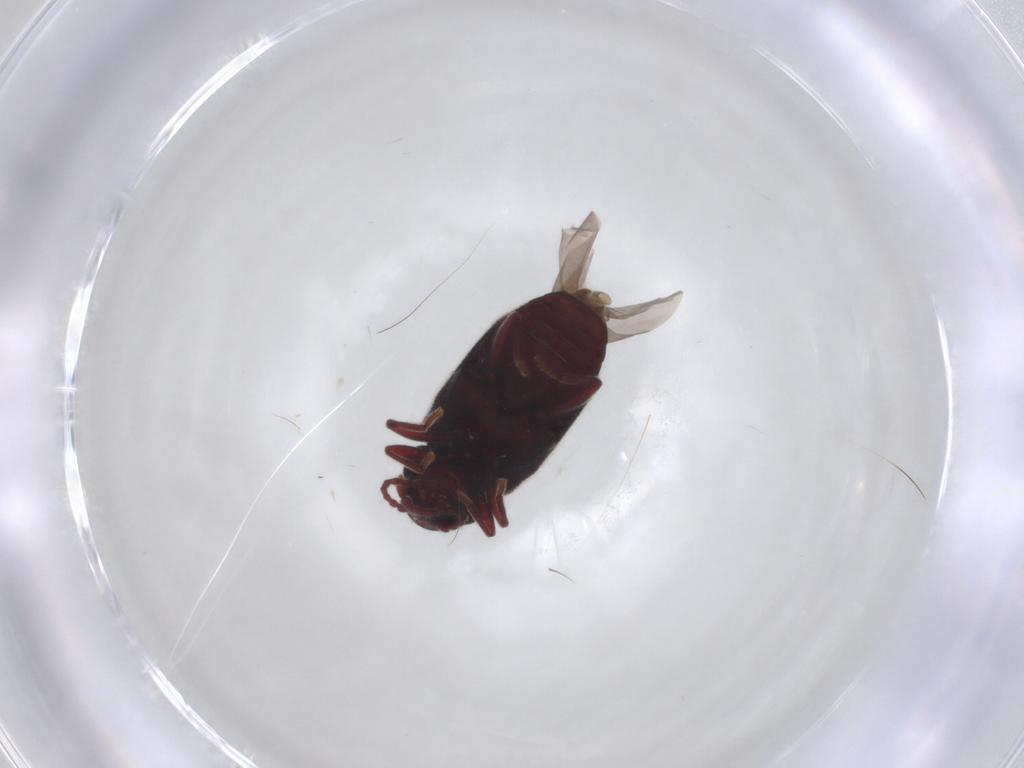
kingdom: Animalia
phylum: Arthropoda
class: Insecta
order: Coleoptera
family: Ptinidae
